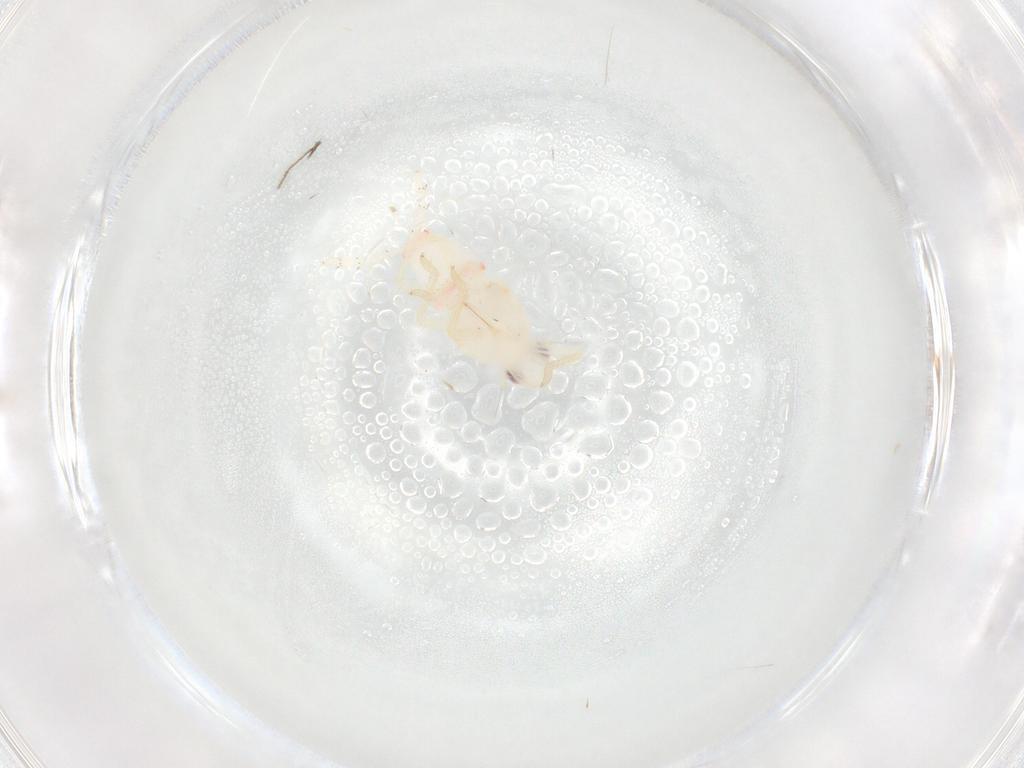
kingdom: Animalia
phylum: Arthropoda
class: Insecta
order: Hemiptera
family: Tropiduchidae
